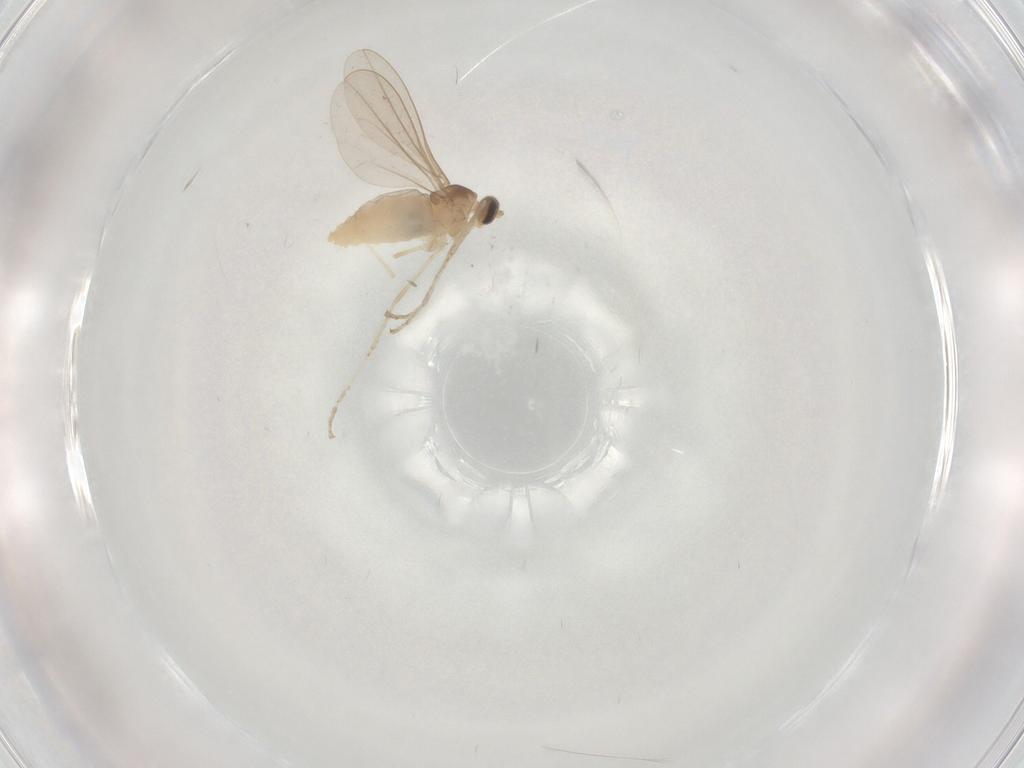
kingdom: Animalia
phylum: Arthropoda
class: Insecta
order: Diptera
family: Cecidomyiidae
